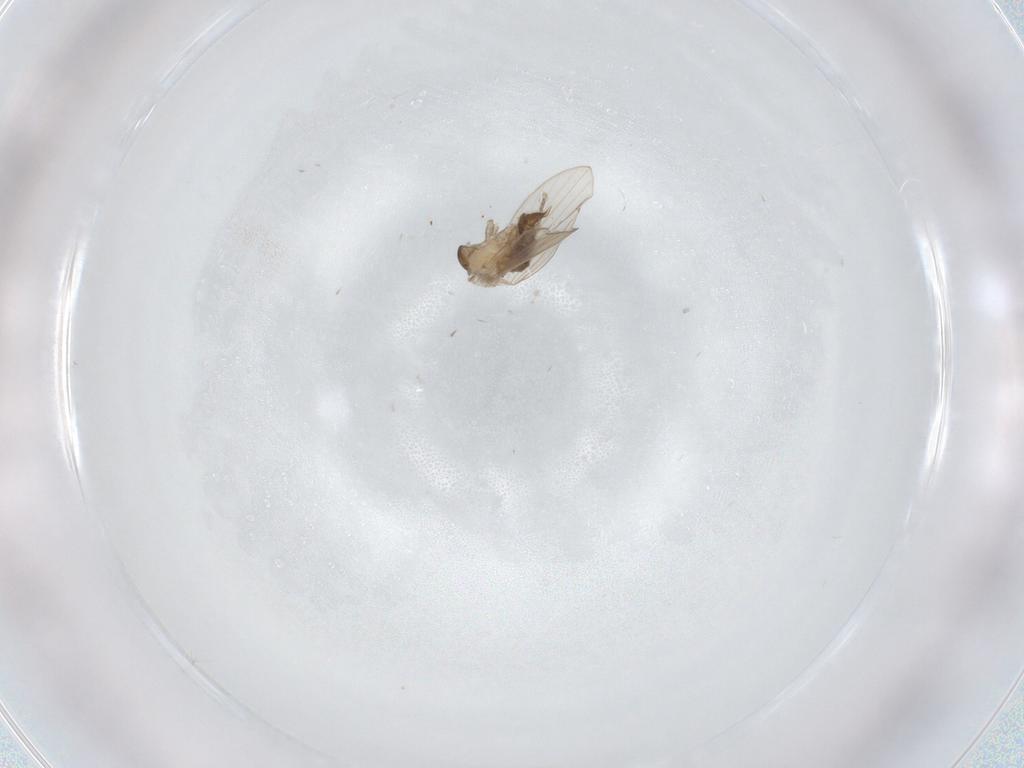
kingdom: Animalia
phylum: Arthropoda
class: Insecta
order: Diptera
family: Psychodidae
